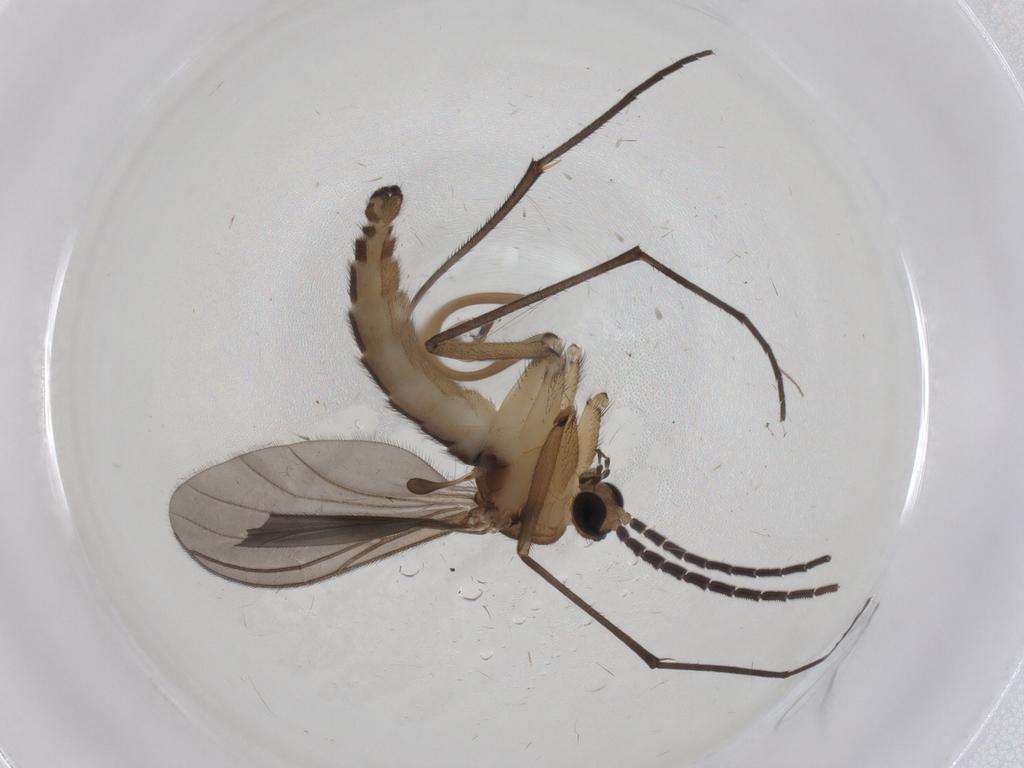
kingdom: Animalia
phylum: Arthropoda
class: Insecta
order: Diptera
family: Sciaridae
